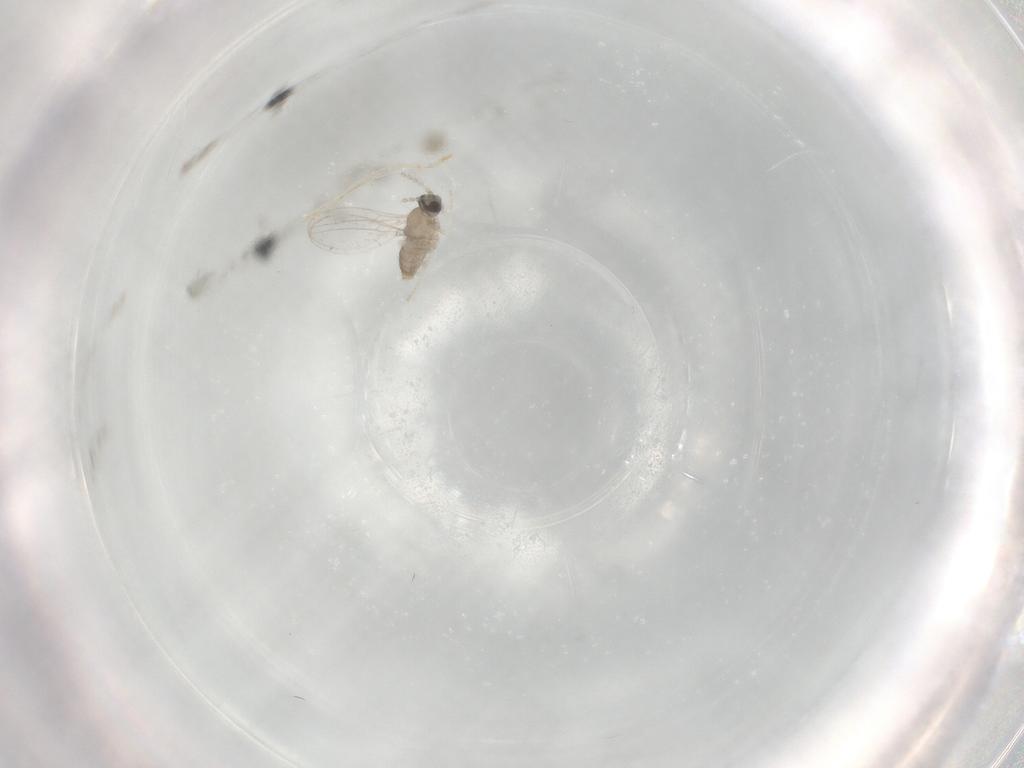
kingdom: Animalia
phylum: Arthropoda
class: Insecta
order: Diptera
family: Cecidomyiidae
